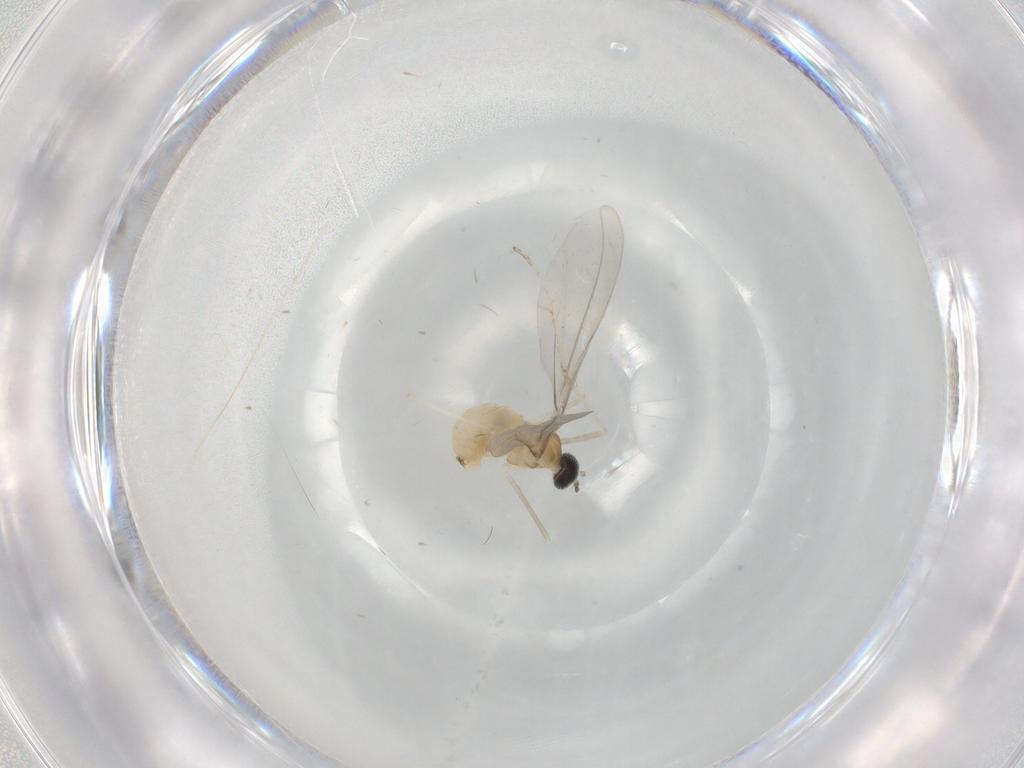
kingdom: Animalia
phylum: Arthropoda
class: Insecta
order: Diptera
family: Cecidomyiidae
